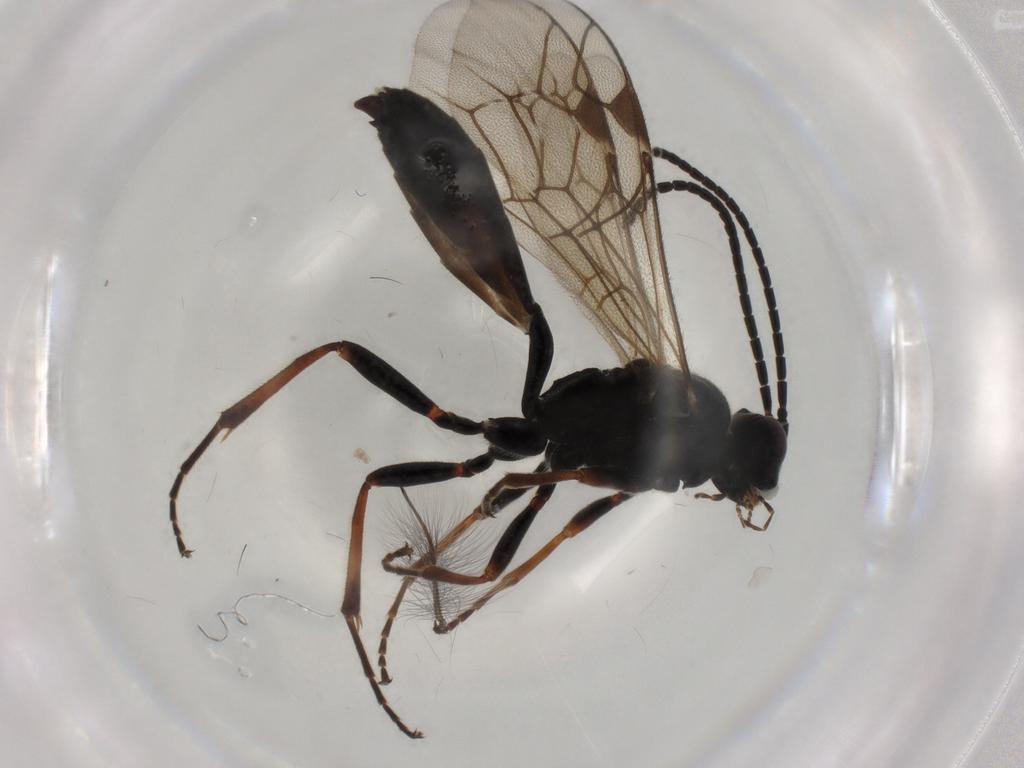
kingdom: Animalia
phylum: Arthropoda
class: Insecta
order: Hymenoptera
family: Ichneumonidae
